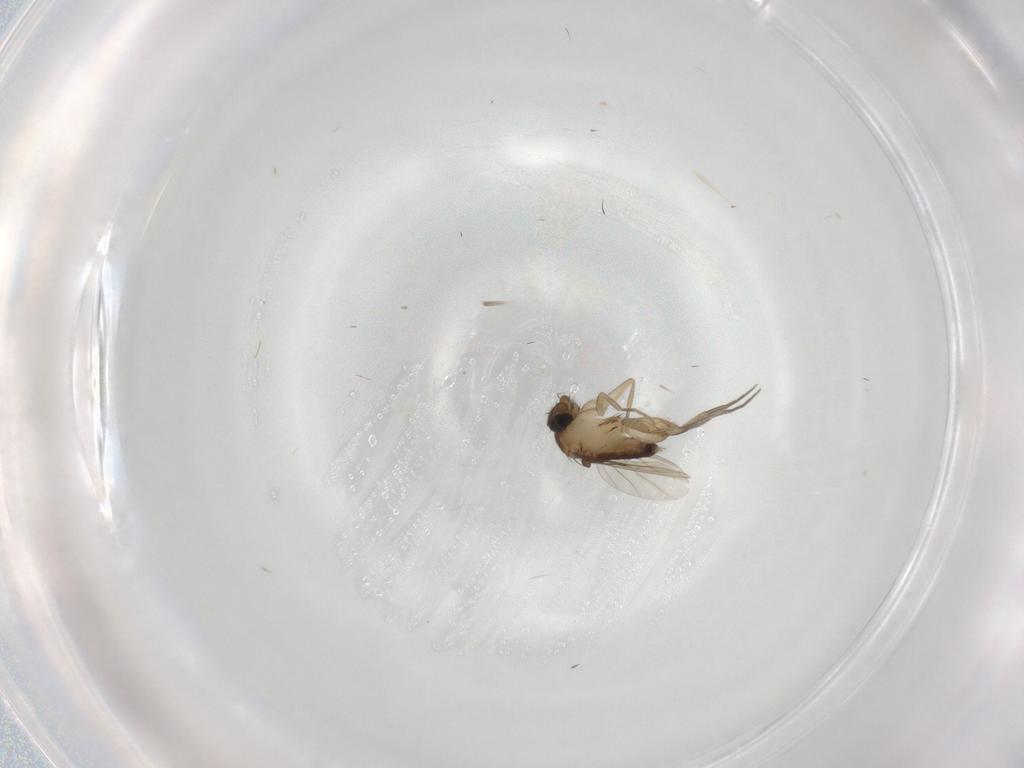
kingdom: Animalia
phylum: Arthropoda
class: Insecta
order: Diptera
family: Phoridae
